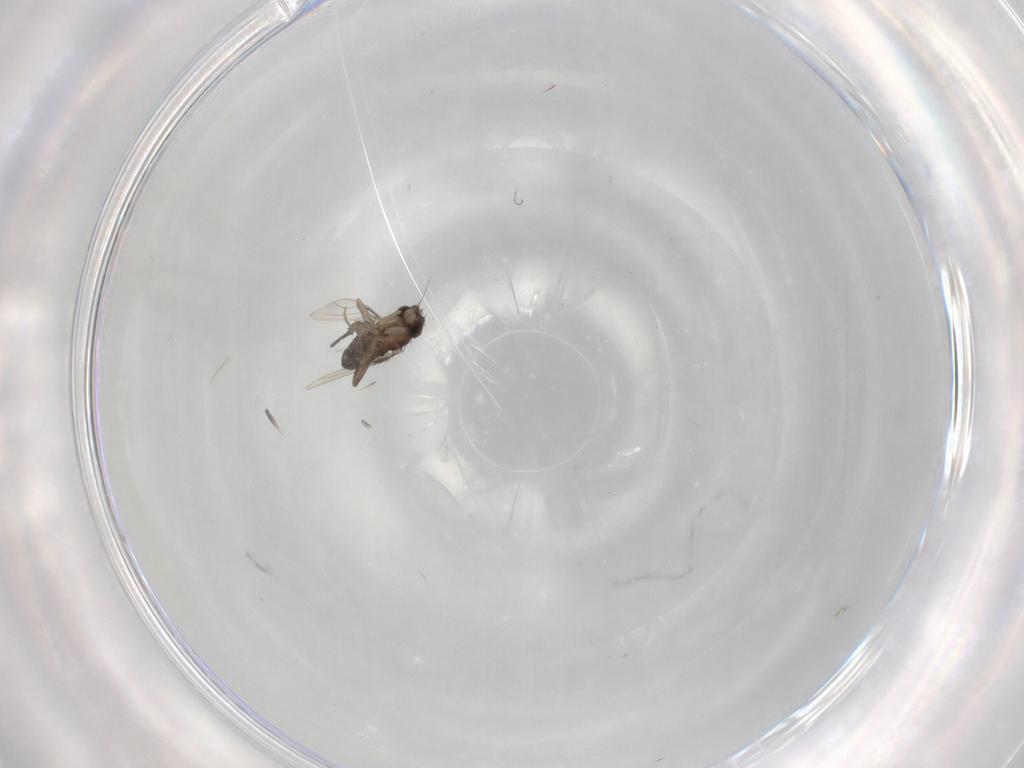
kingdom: Animalia
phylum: Arthropoda
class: Insecta
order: Diptera
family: Phoridae
